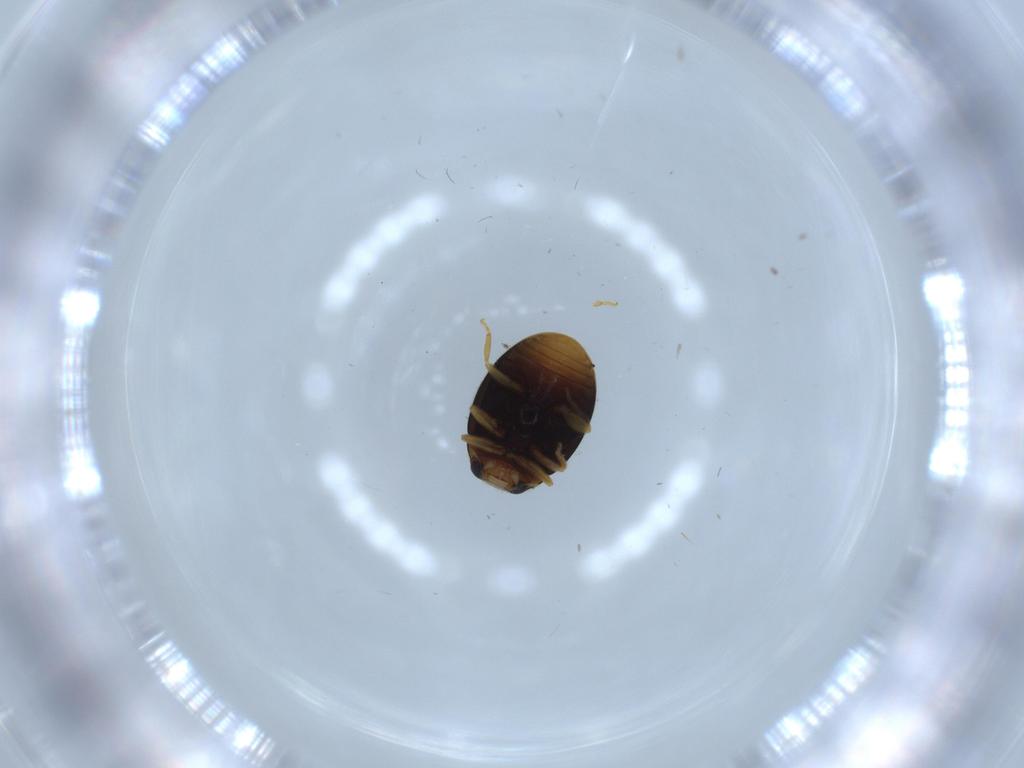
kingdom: Animalia
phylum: Arthropoda
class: Insecta
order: Coleoptera
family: Coccinellidae
